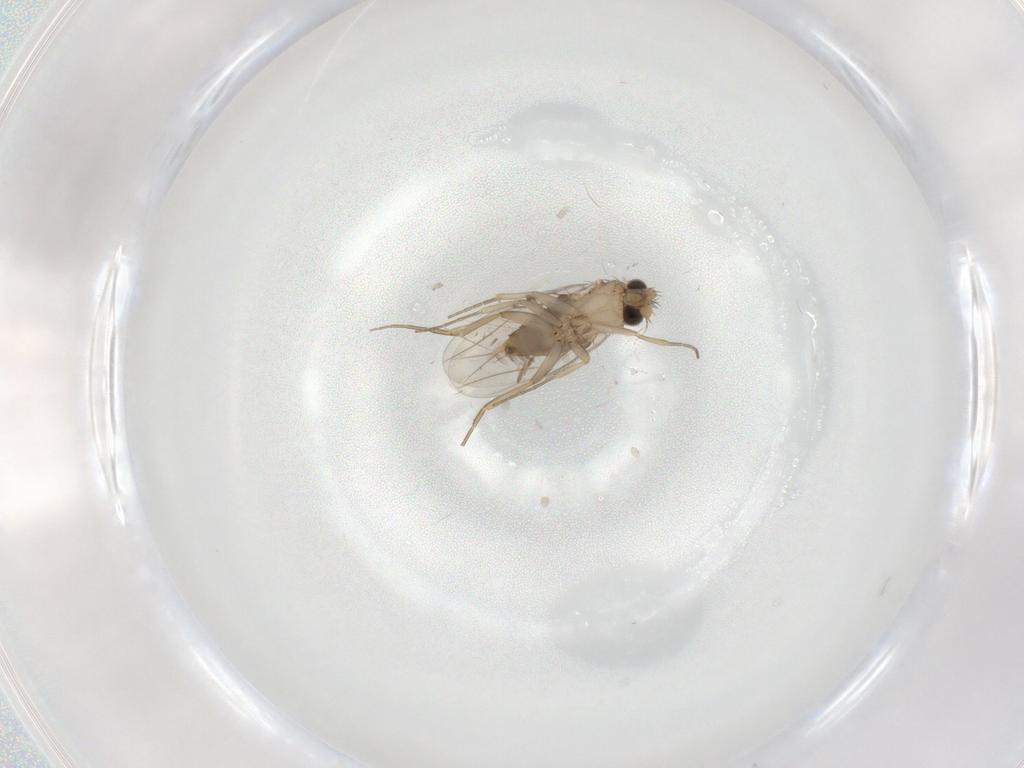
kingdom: Animalia
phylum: Arthropoda
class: Insecta
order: Diptera
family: Phoridae
